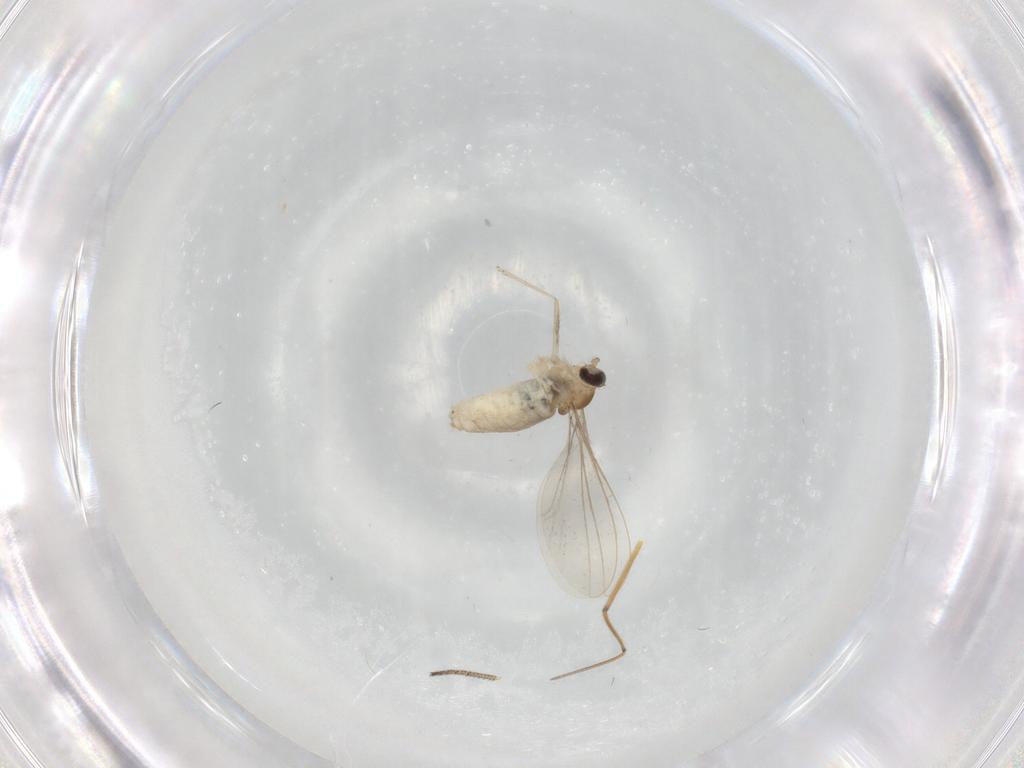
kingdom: Animalia
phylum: Arthropoda
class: Insecta
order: Diptera
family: Cecidomyiidae
